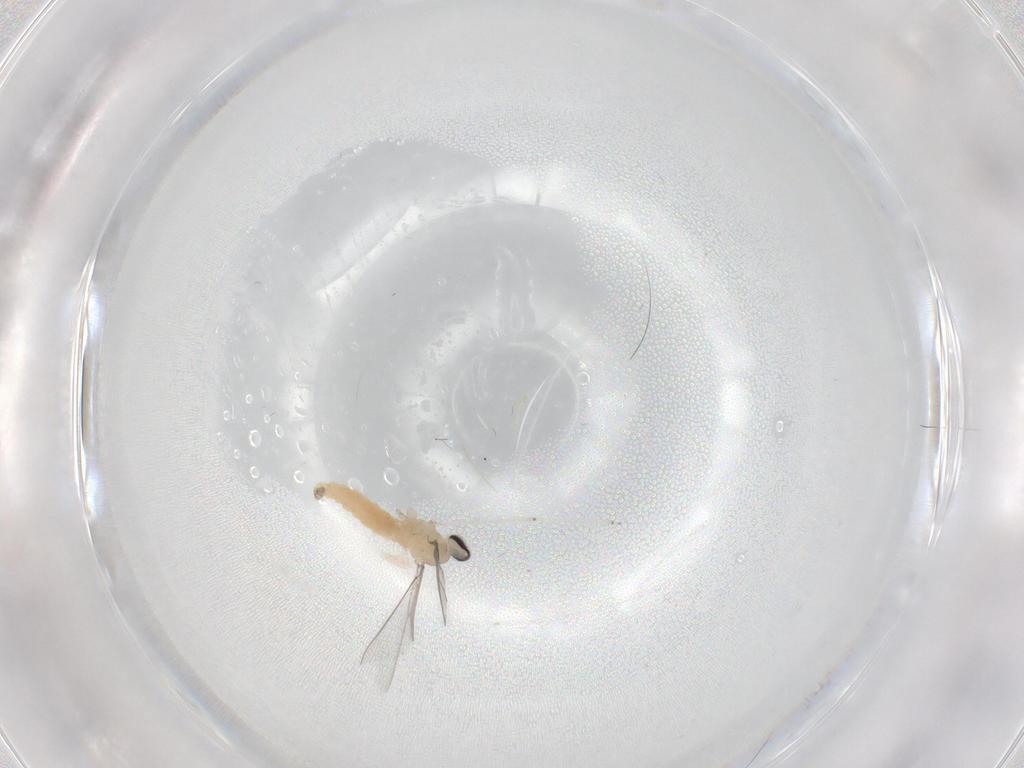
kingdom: Animalia
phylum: Arthropoda
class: Insecta
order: Diptera
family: Cecidomyiidae
